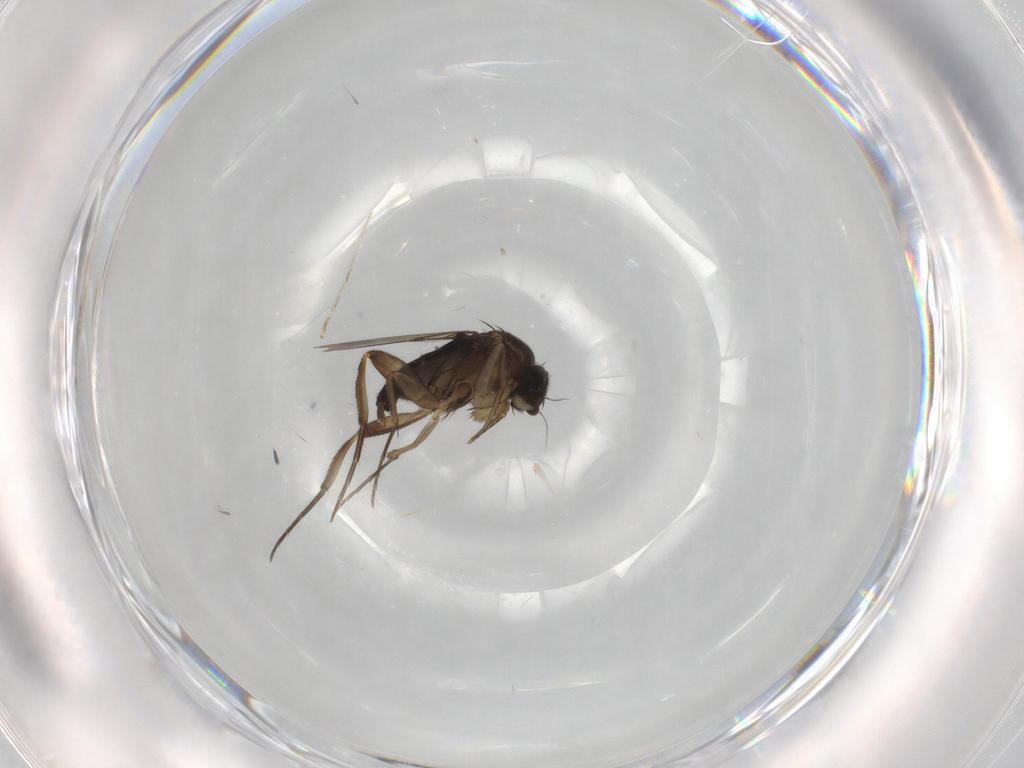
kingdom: Animalia
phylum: Arthropoda
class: Insecta
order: Diptera
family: Phoridae
